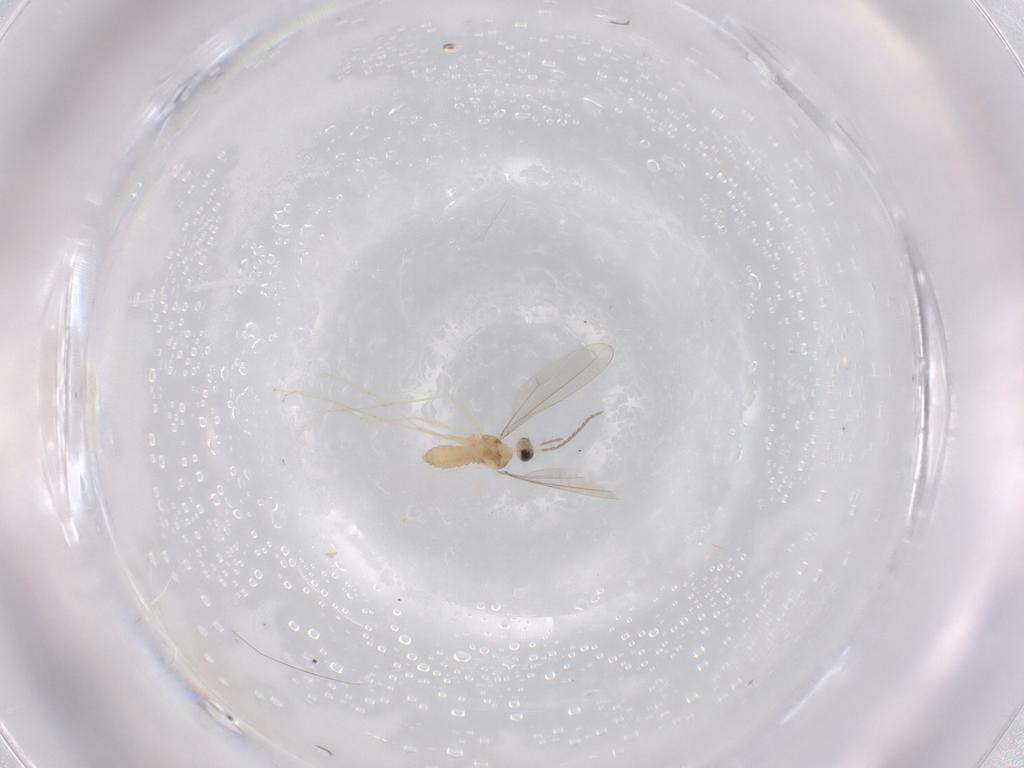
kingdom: Animalia
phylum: Arthropoda
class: Insecta
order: Diptera
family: Cecidomyiidae
